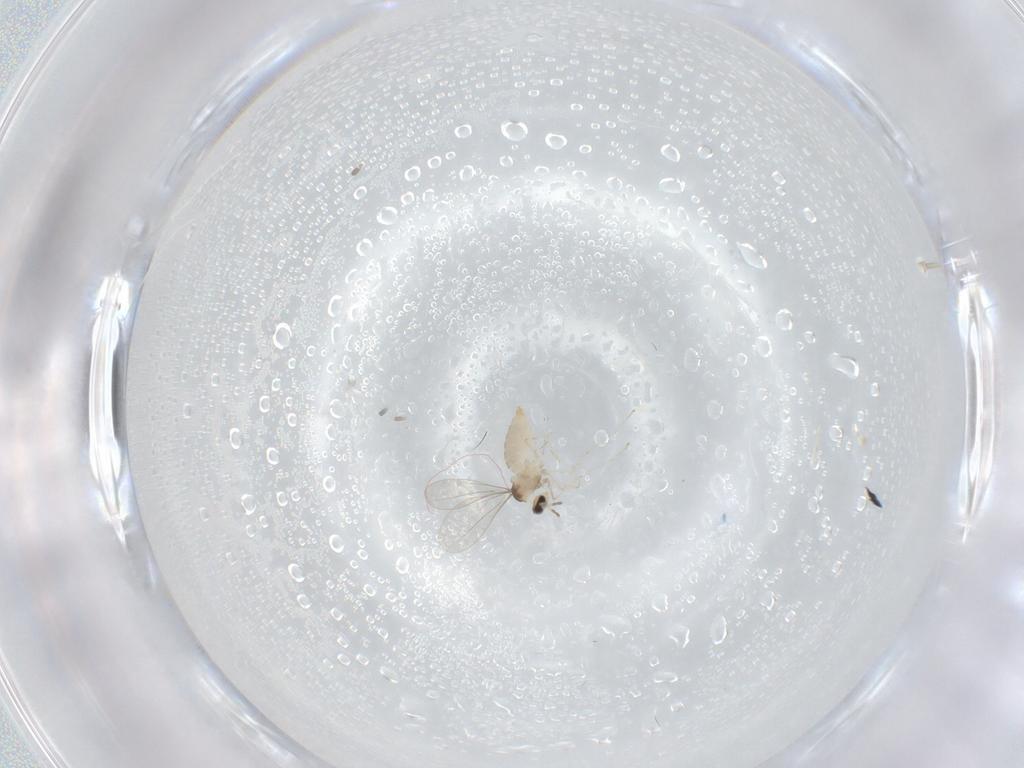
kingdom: Animalia
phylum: Arthropoda
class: Insecta
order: Diptera
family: Cecidomyiidae
